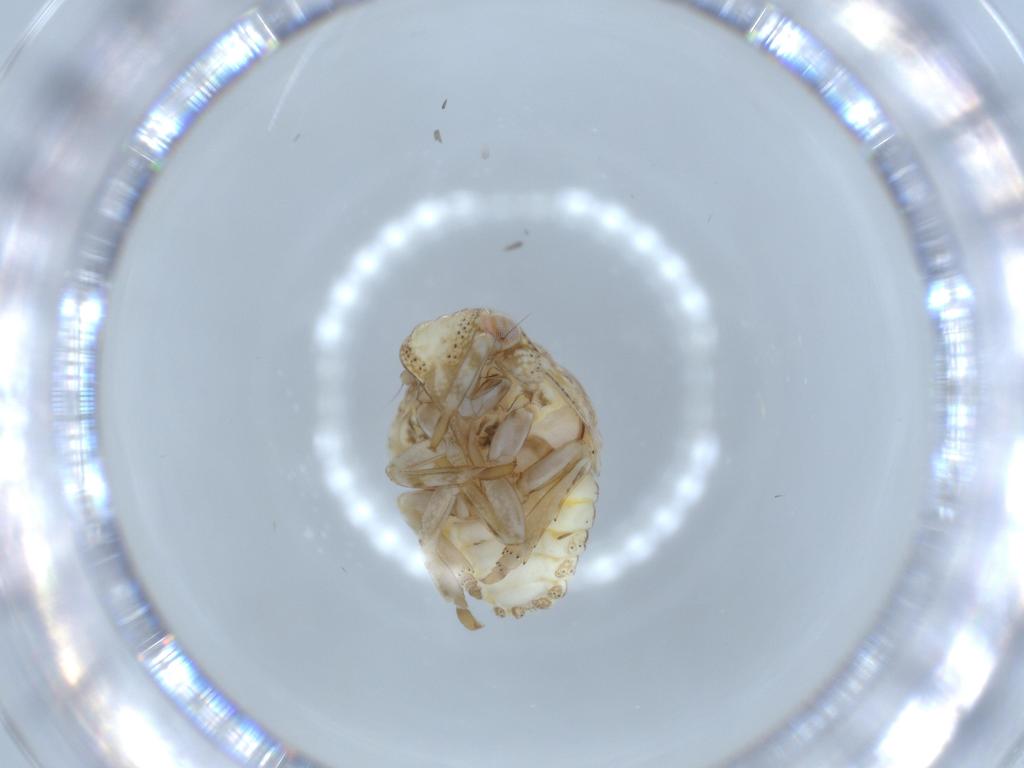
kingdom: Animalia
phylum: Arthropoda
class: Insecta
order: Hemiptera
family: Acanaloniidae
